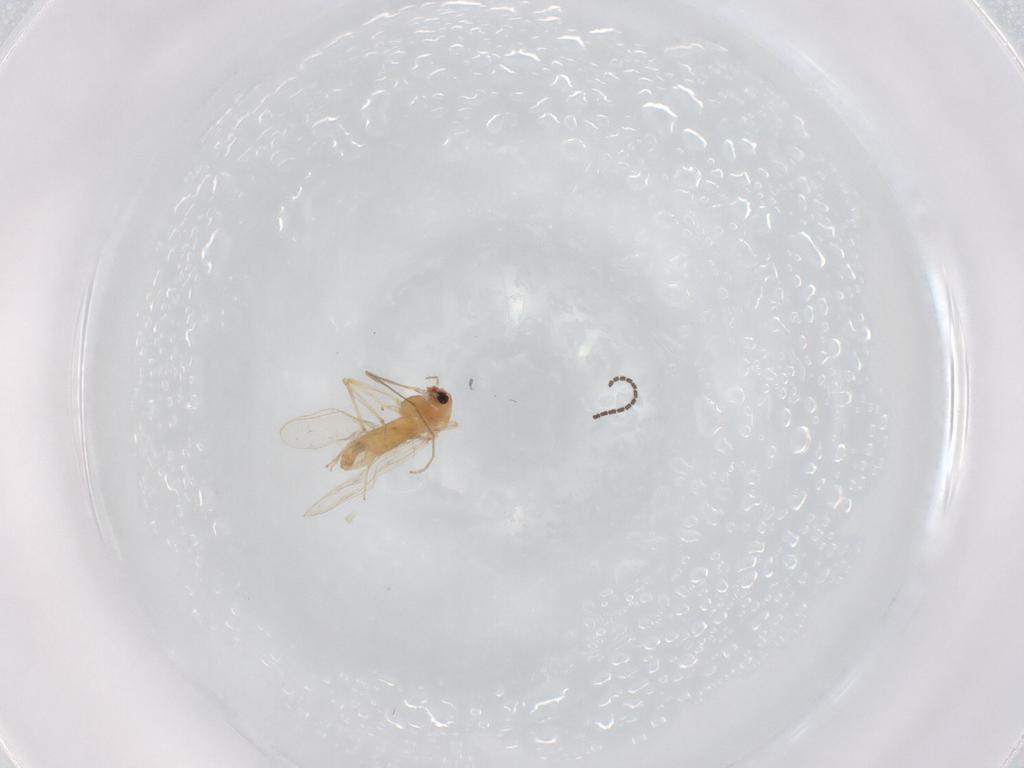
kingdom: Animalia
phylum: Arthropoda
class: Insecta
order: Diptera
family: Chironomidae
